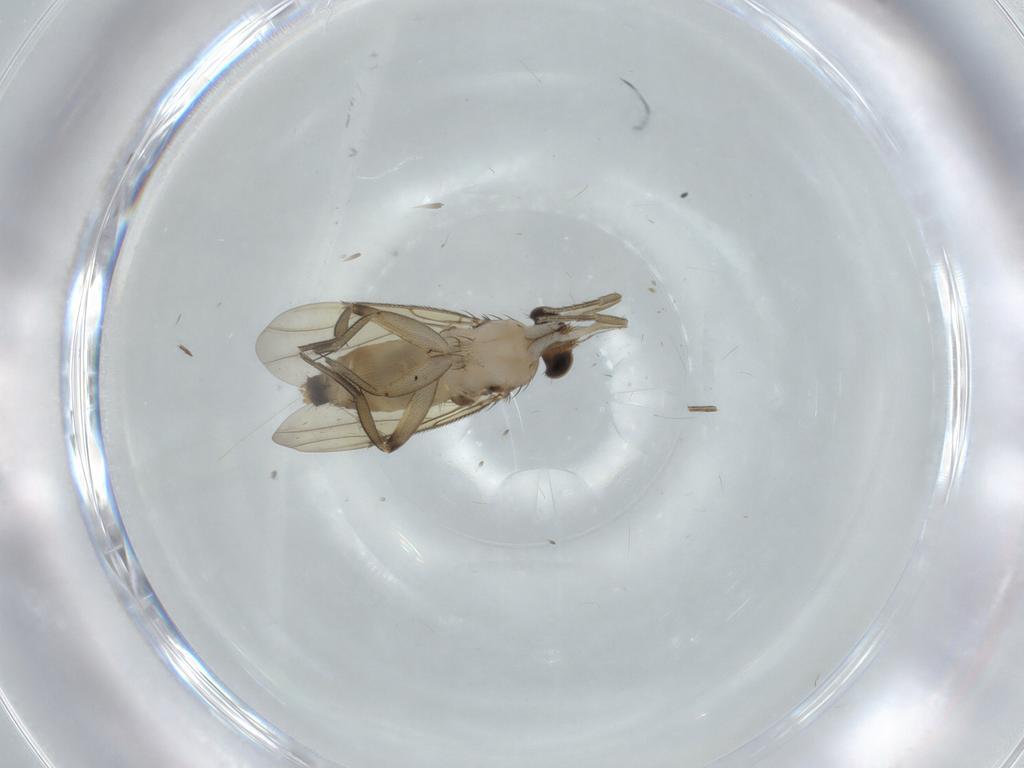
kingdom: Animalia
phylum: Arthropoda
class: Insecta
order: Diptera
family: Phoridae
